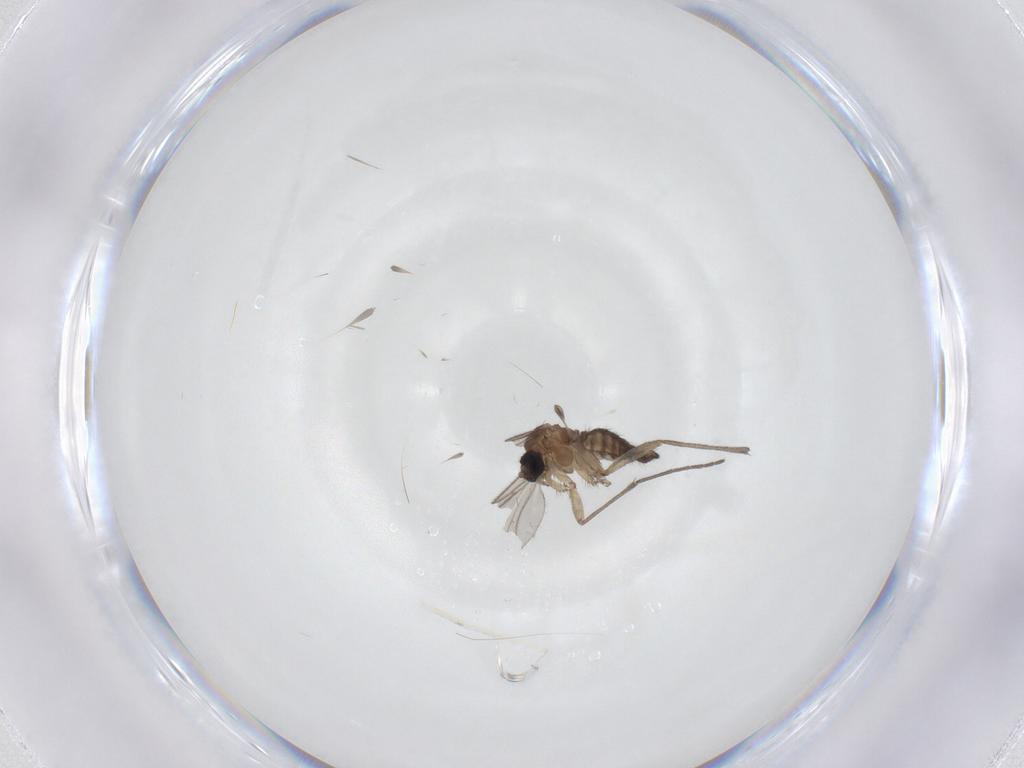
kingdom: Animalia
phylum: Arthropoda
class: Insecta
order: Diptera
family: Sciaridae
